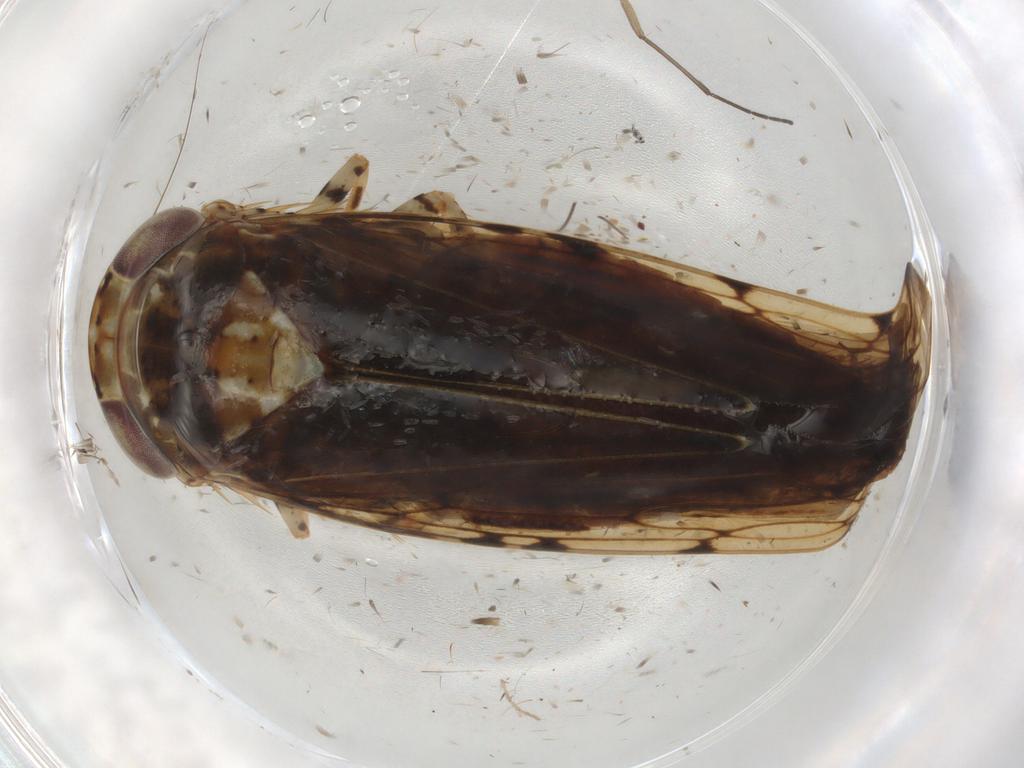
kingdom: Animalia
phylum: Arthropoda
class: Insecta
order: Hemiptera
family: Cicadellidae
